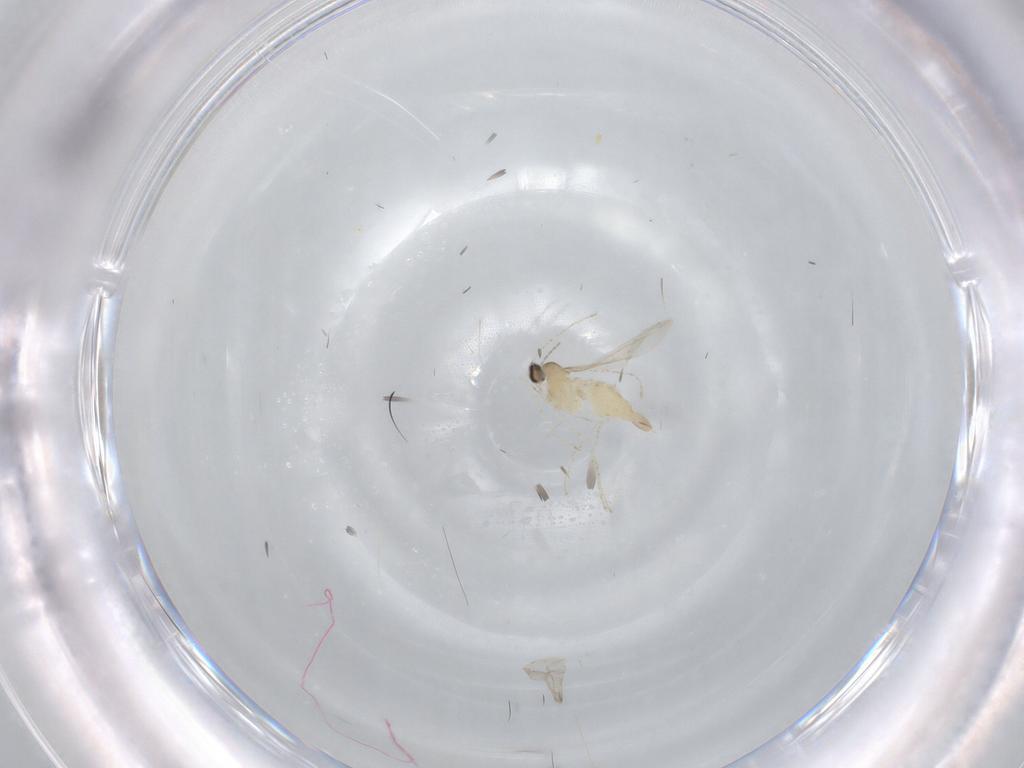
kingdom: Animalia
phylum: Arthropoda
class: Insecta
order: Diptera
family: Cecidomyiidae
